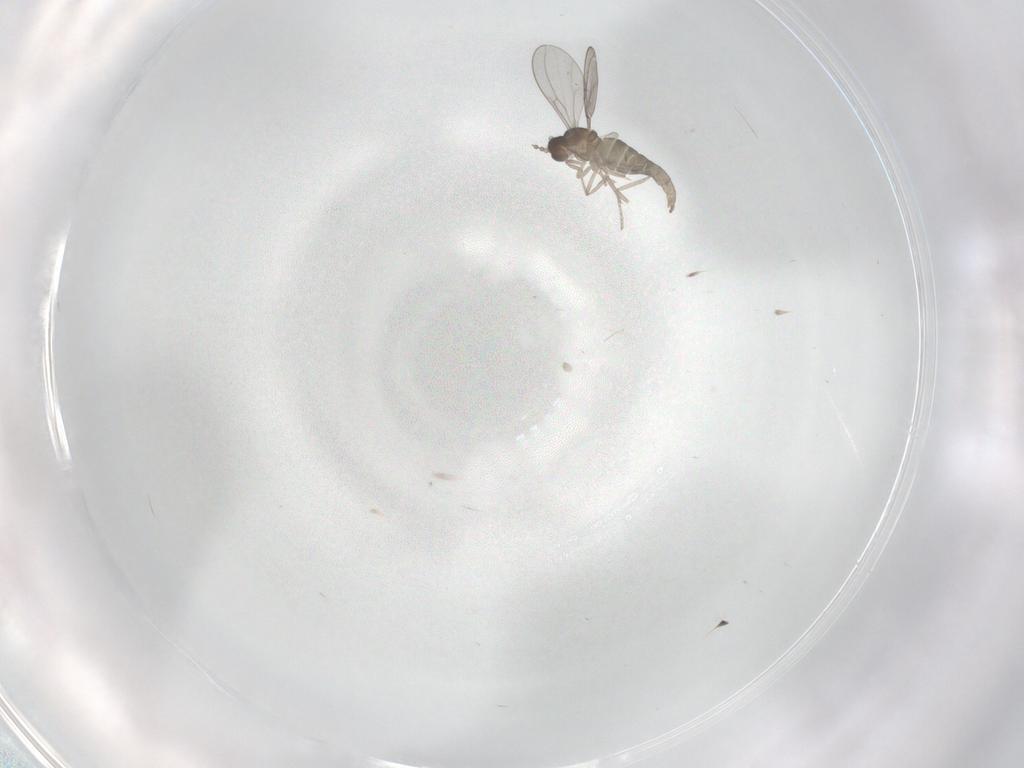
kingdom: Animalia
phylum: Arthropoda
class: Insecta
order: Diptera
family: Cecidomyiidae
